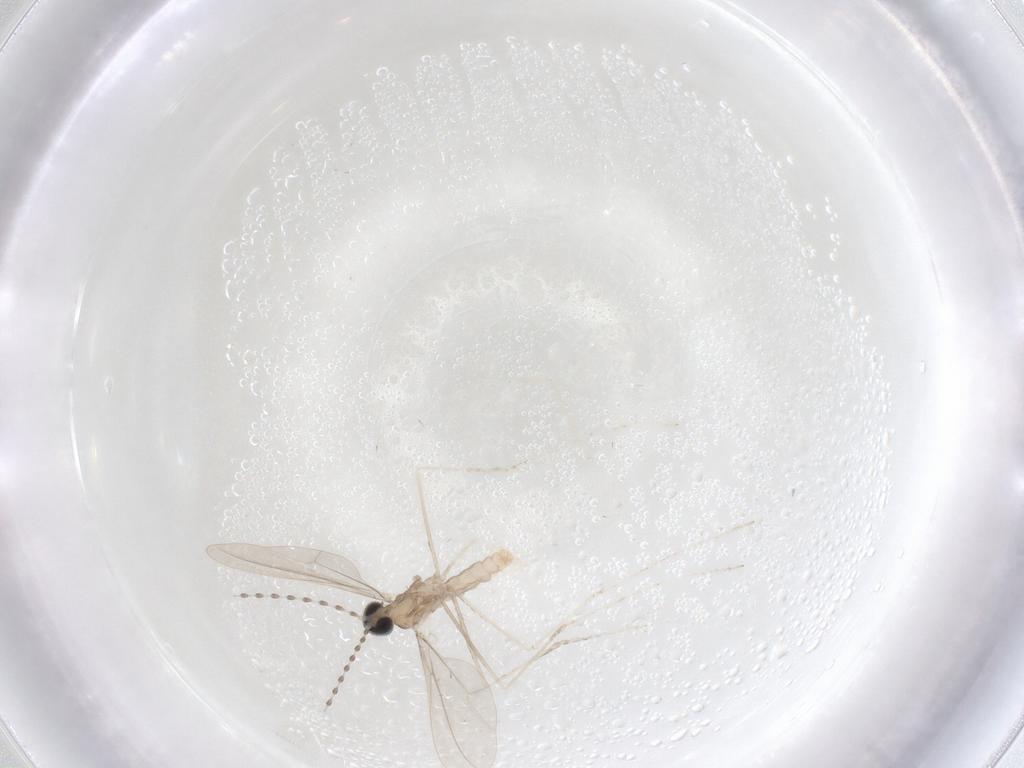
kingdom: Animalia
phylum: Arthropoda
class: Insecta
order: Diptera
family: Cecidomyiidae
